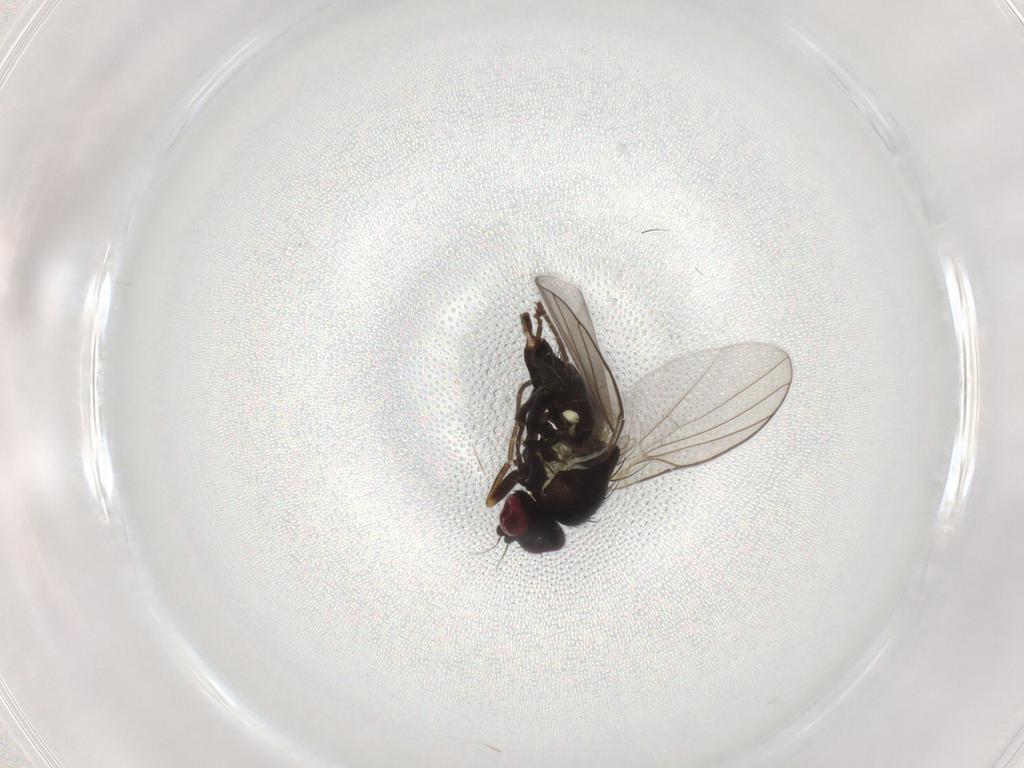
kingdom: Animalia
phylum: Arthropoda
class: Insecta
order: Diptera
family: Agromyzidae
